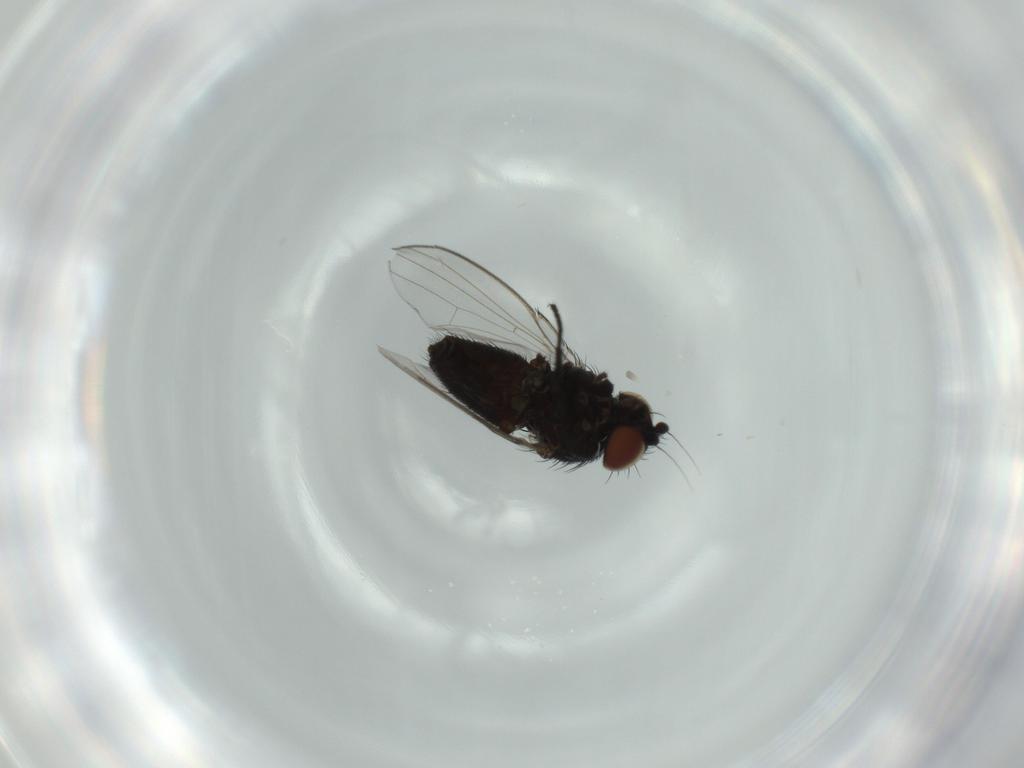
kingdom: Animalia
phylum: Arthropoda
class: Insecta
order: Diptera
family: Milichiidae
